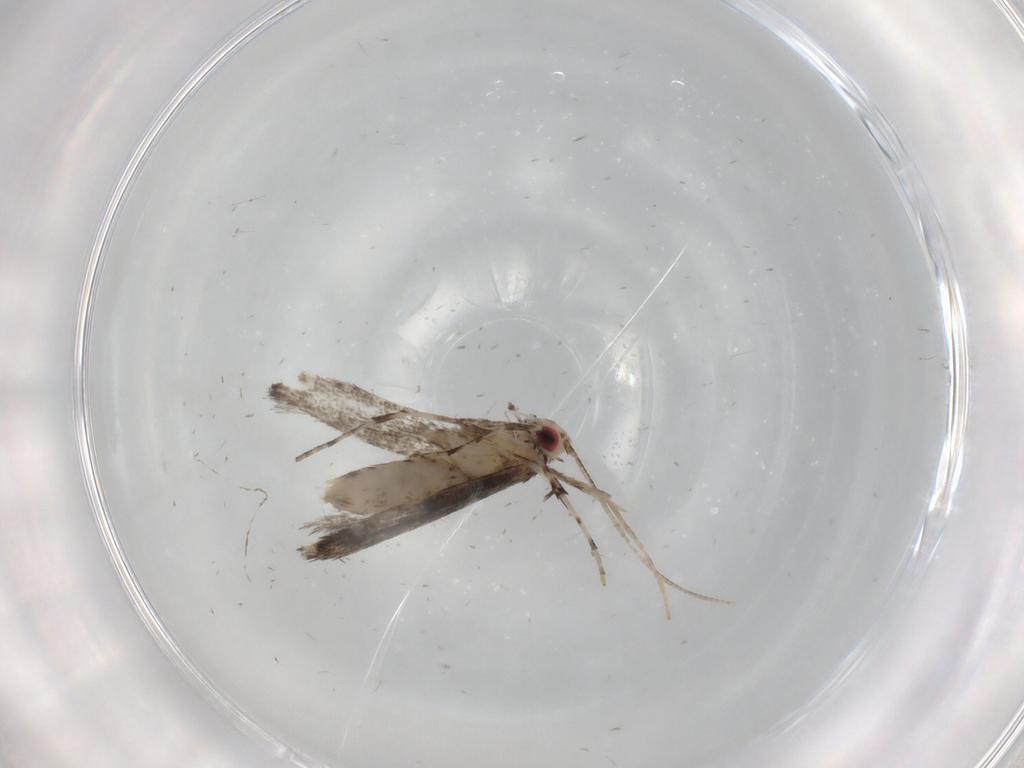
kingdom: Animalia
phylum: Arthropoda
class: Insecta
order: Lepidoptera
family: Gracillariidae
